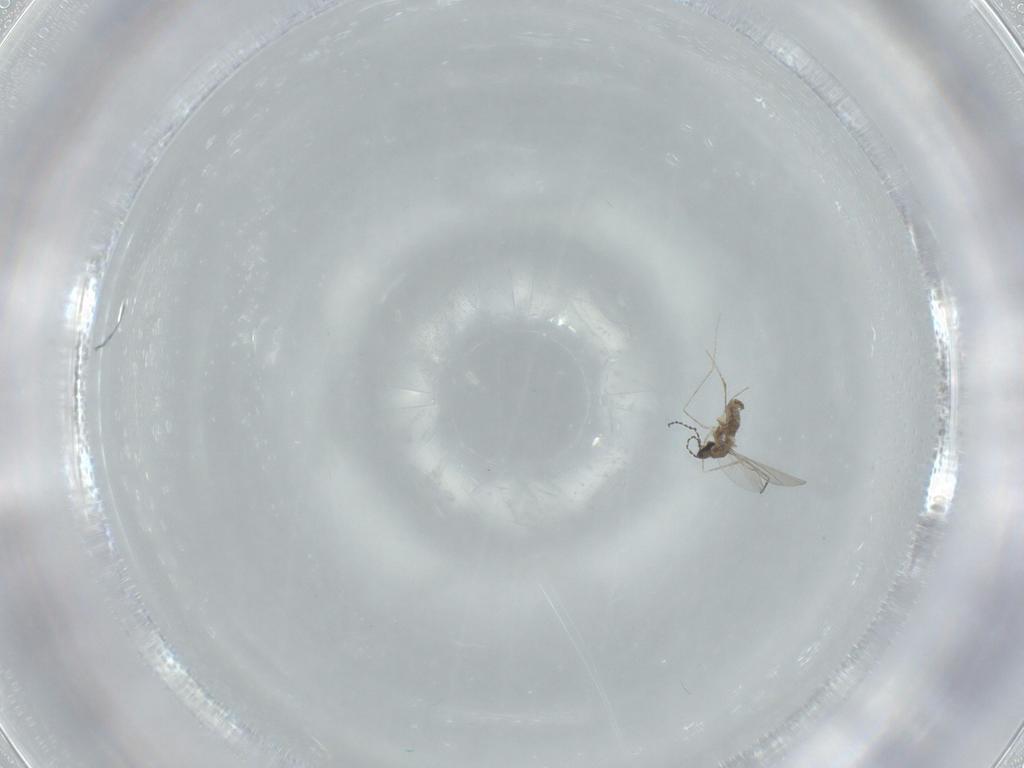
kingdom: Animalia
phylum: Arthropoda
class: Insecta
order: Diptera
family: Cecidomyiidae
